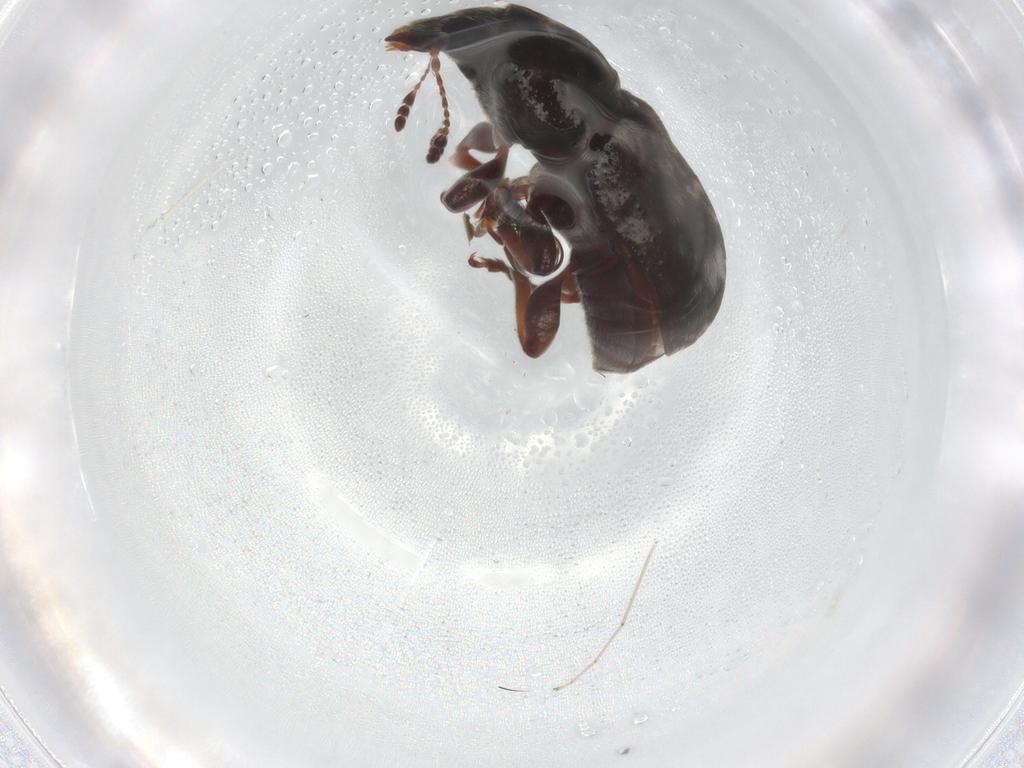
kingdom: Animalia
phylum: Arthropoda
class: Insecta
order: Coleoptera
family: Anthribidae
